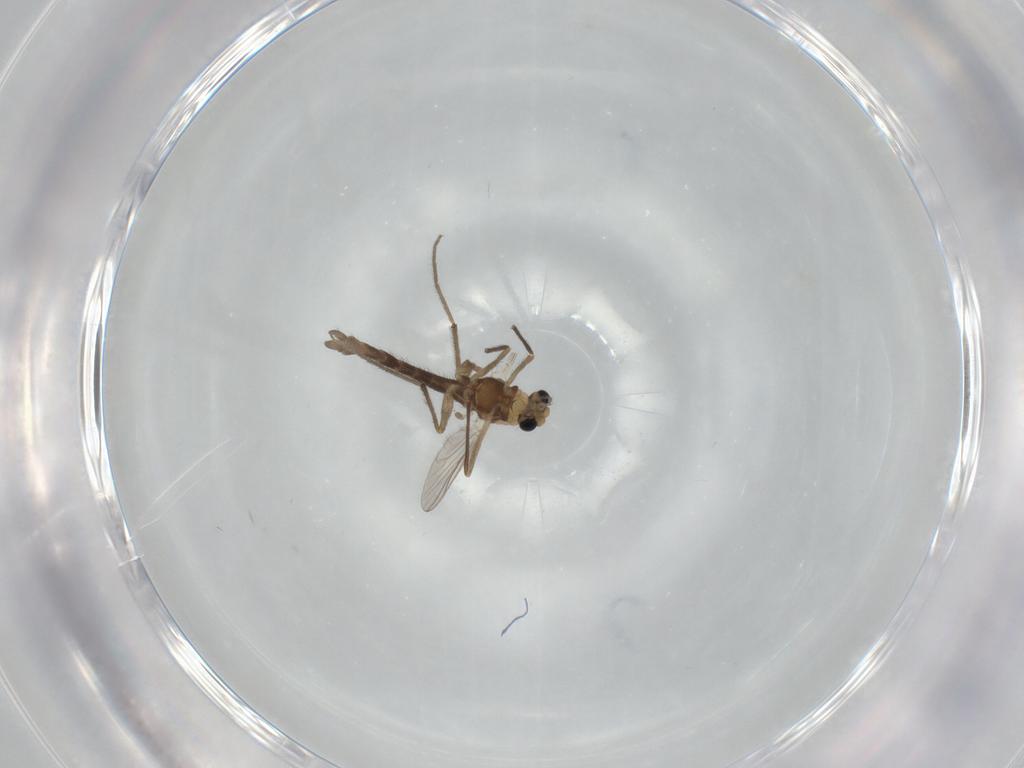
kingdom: Animalia
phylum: Arthropoda
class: Insecta
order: Diptera
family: Chironomidae
